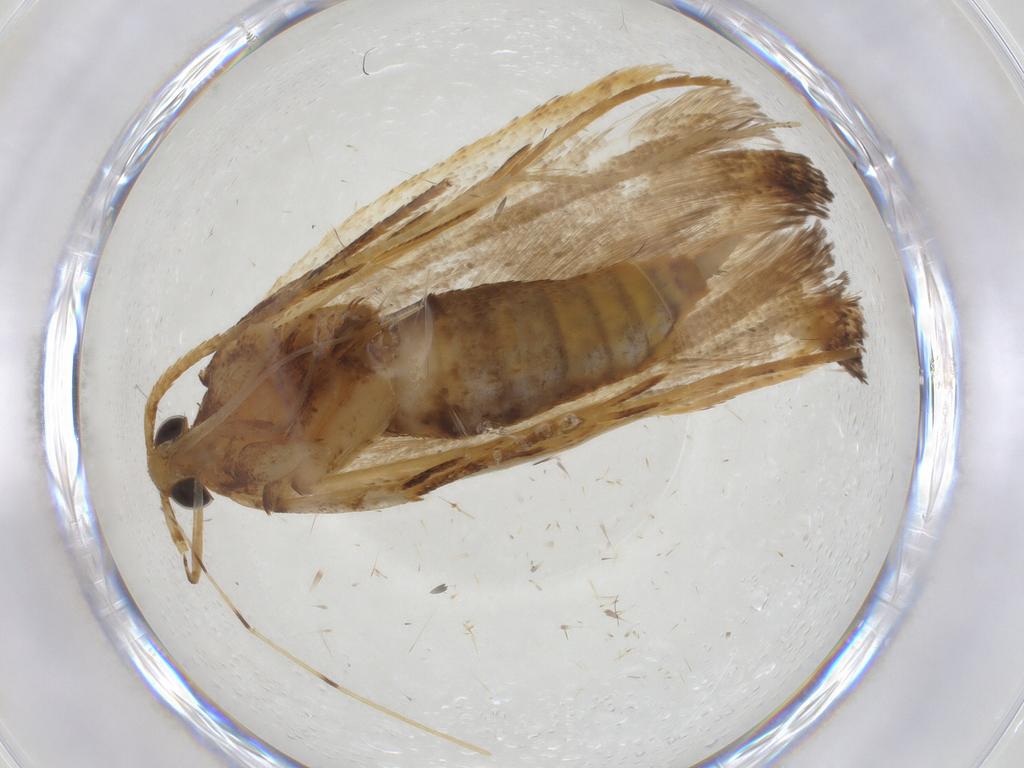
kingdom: Animalia
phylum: Arthropoda
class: Insecta
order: Lepidoptera
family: Lecithoceridae
